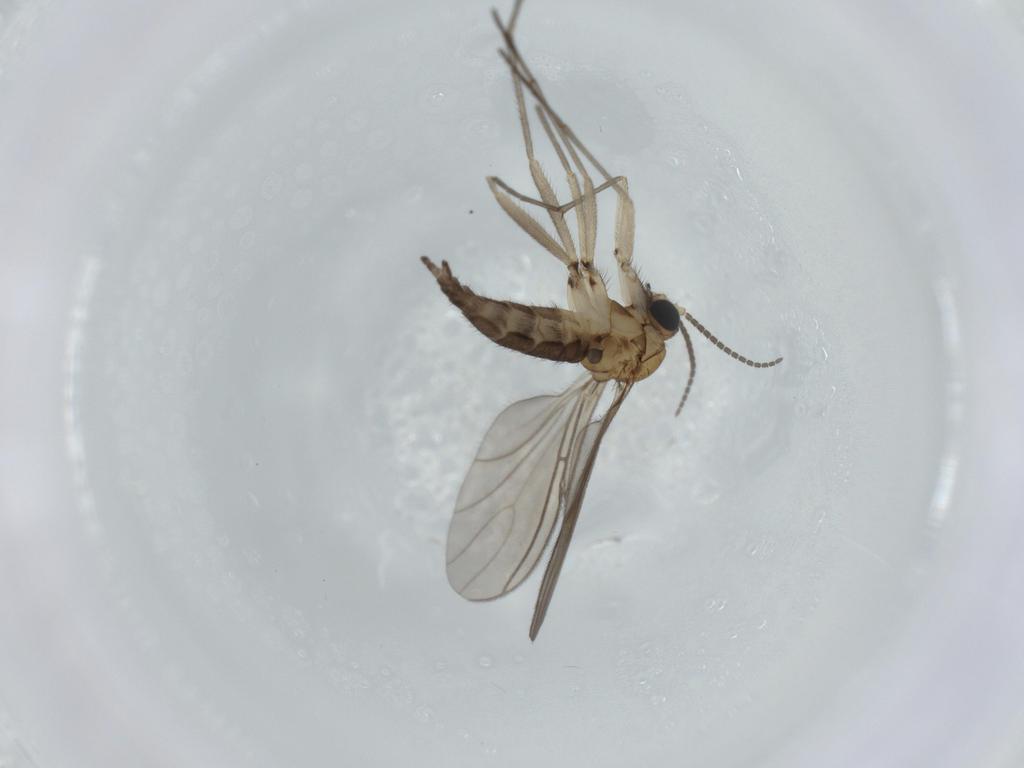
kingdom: Animalia
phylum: Arthropoda
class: Insecta
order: Diptera
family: Sciaridae
